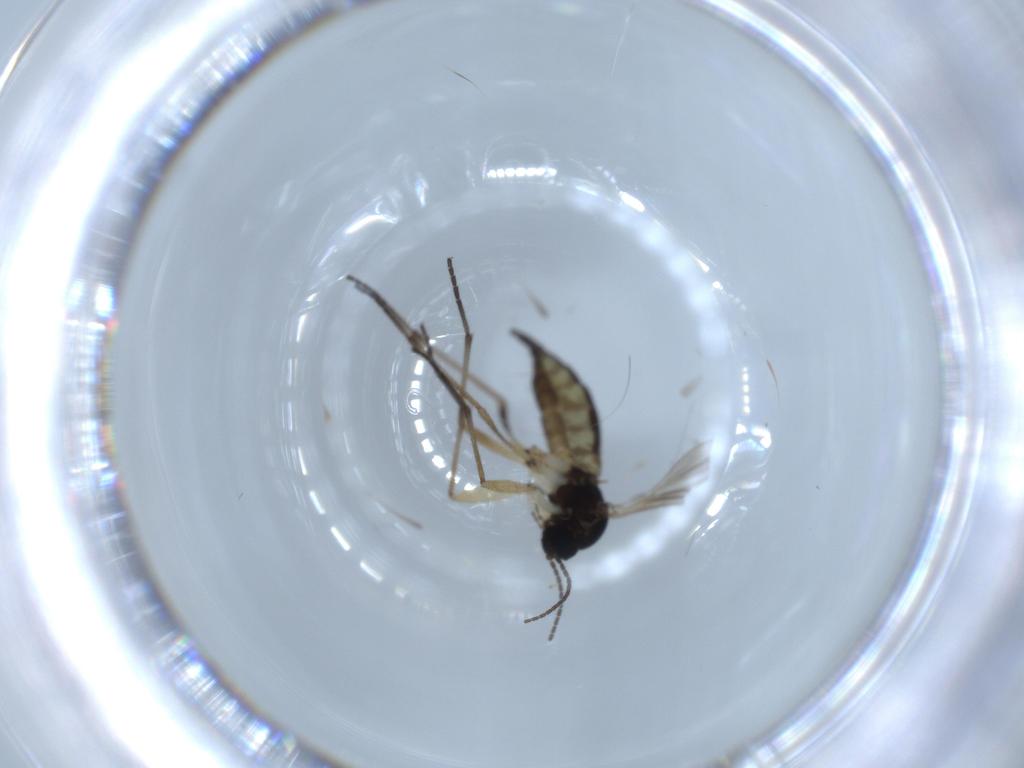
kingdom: Animalia
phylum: Arthropoda
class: Insecta
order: Diptera
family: Sciaridae
